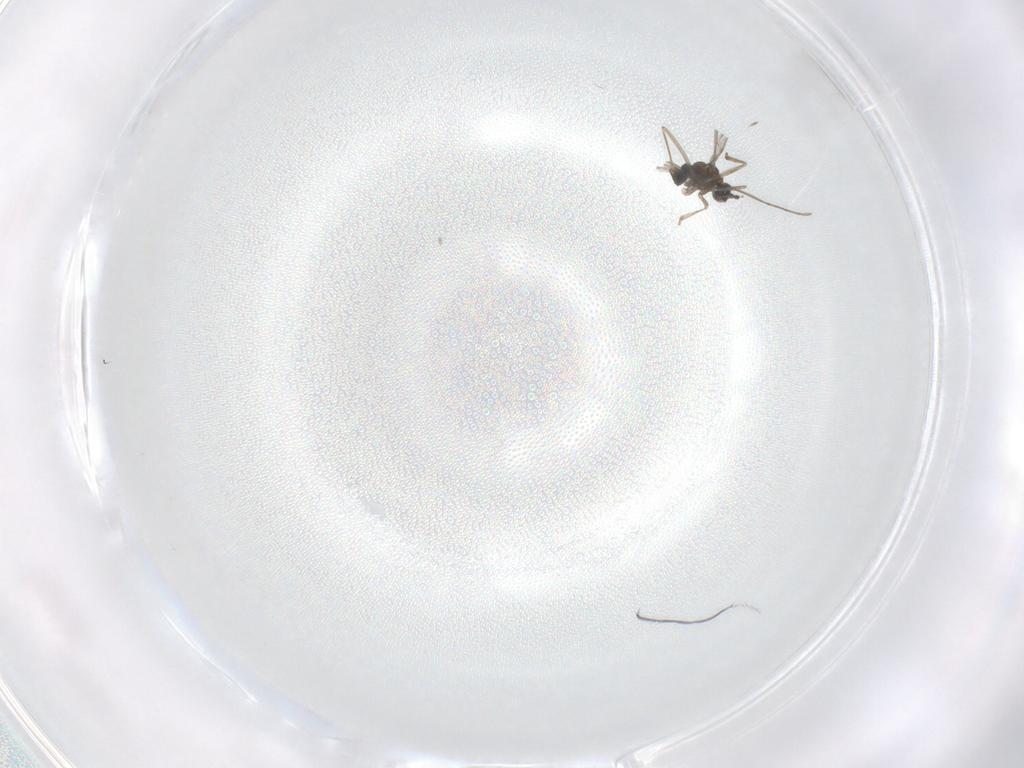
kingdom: Animalia
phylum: Arthropoda
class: Insecta
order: Diptera
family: Cecidomyiidae
